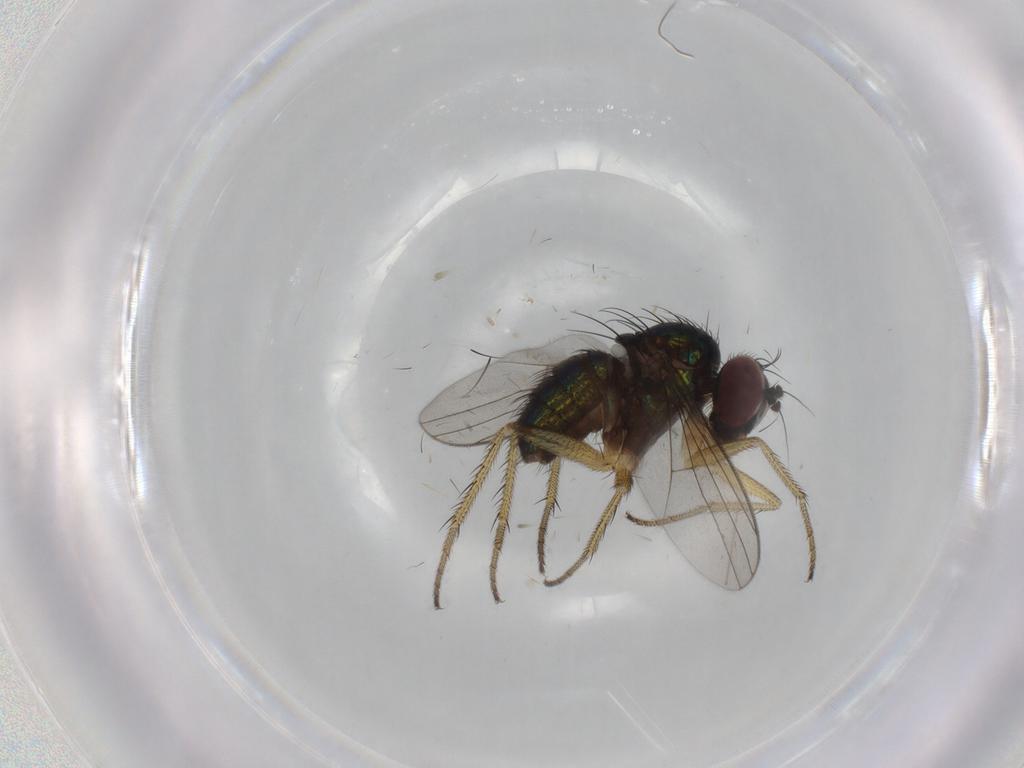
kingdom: Animalia
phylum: Arthropoda
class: Insecta
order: Diptera
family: Dolichopodidae
